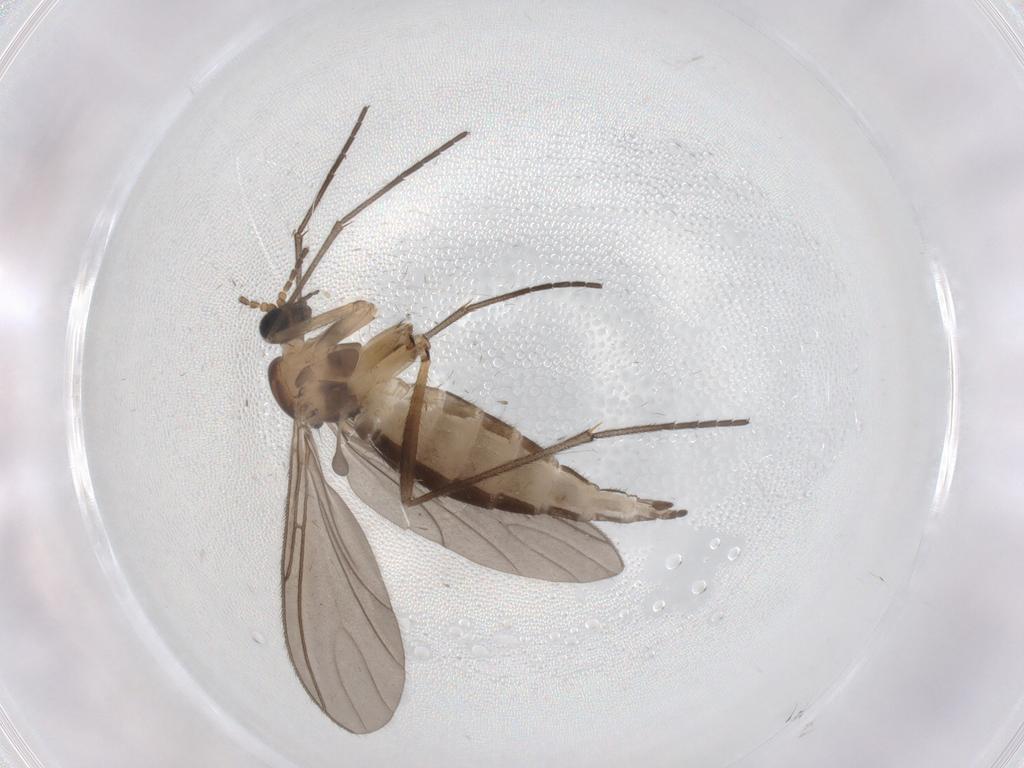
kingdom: Animalia
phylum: Arthropoda
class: Insecta
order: Diptera
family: Sciaridae
